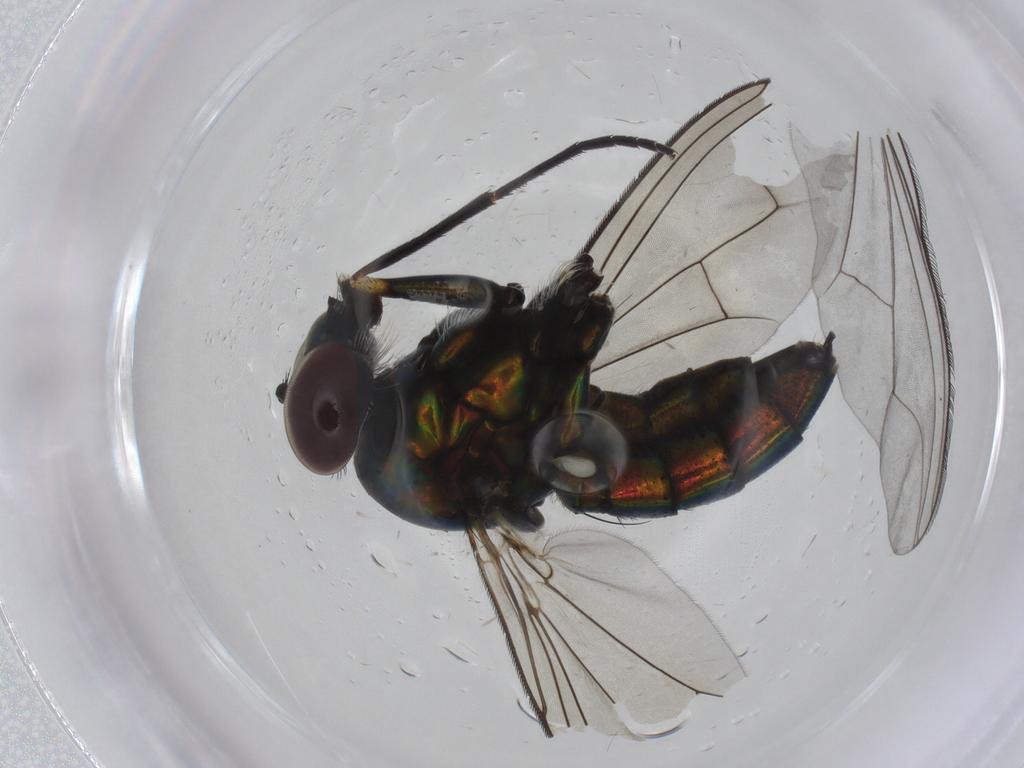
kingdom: Animalia
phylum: Arthropoda
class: Insecta
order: Diptera
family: Dolichopodidae
